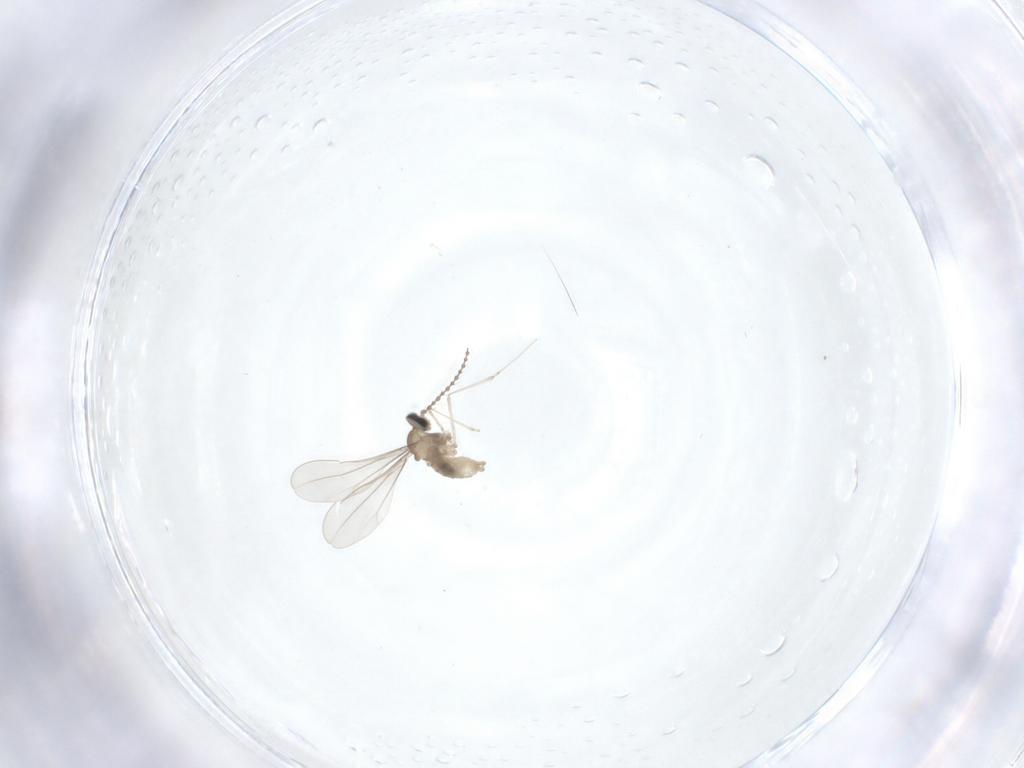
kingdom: Animalia
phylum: Arthropoda
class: Insecta
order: Diptera
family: Cecidomyiidae
